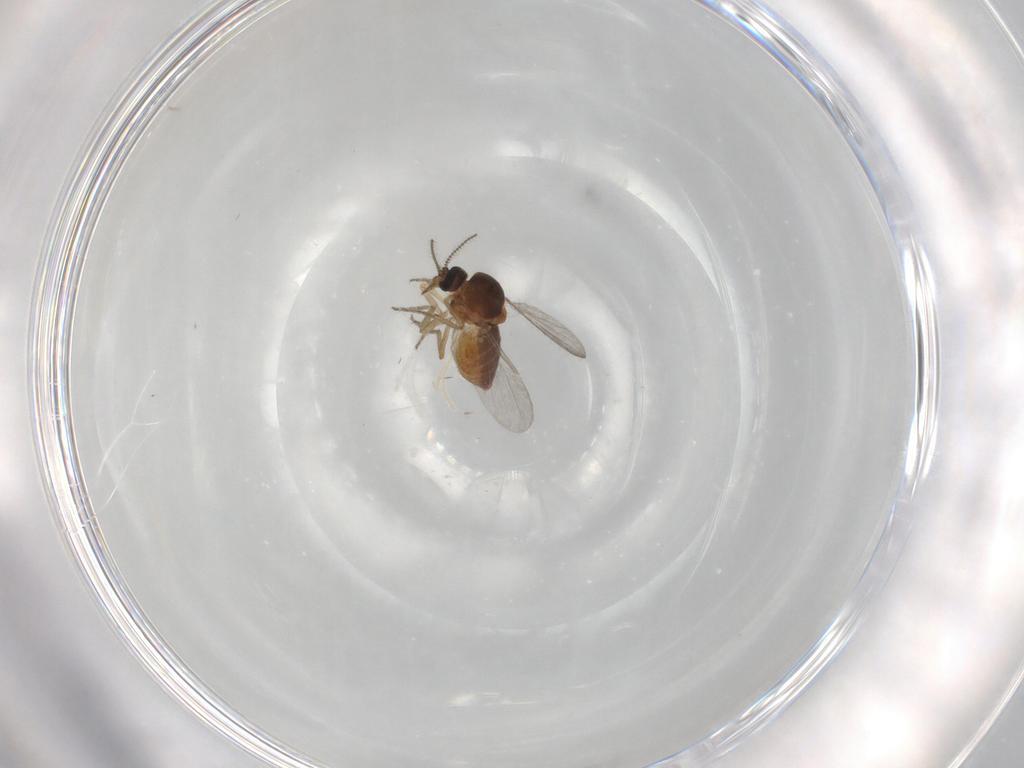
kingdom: Animalia
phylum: Arthropoda
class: Insecta
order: Diptera
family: Ceratopogonidae
